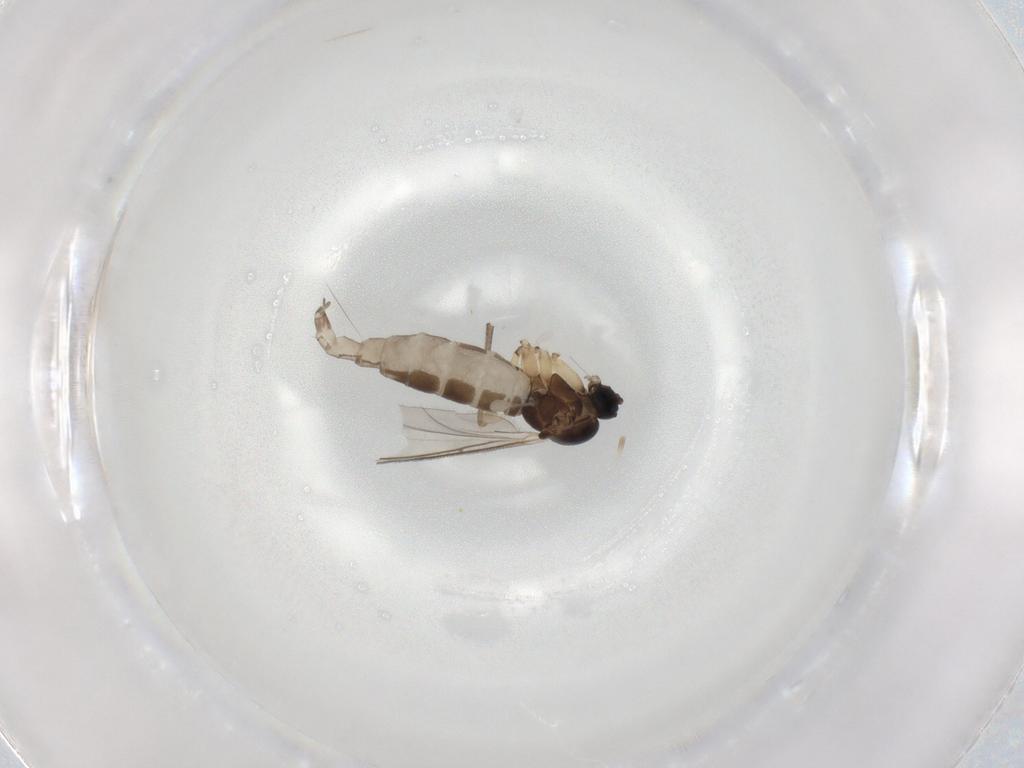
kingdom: Animalia
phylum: Arthropoda
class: Insecta
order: Diptera
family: Sciaridae
